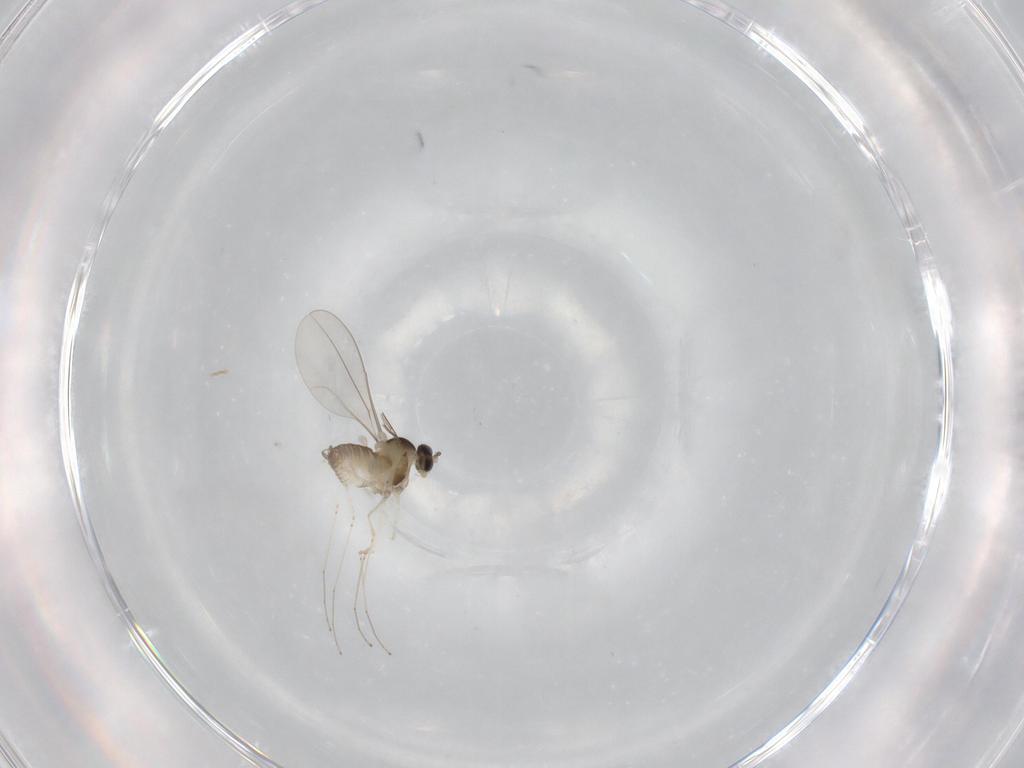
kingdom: Animalia
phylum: Arthropoda
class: Insecta
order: Diptera
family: Cecidomyiidae
